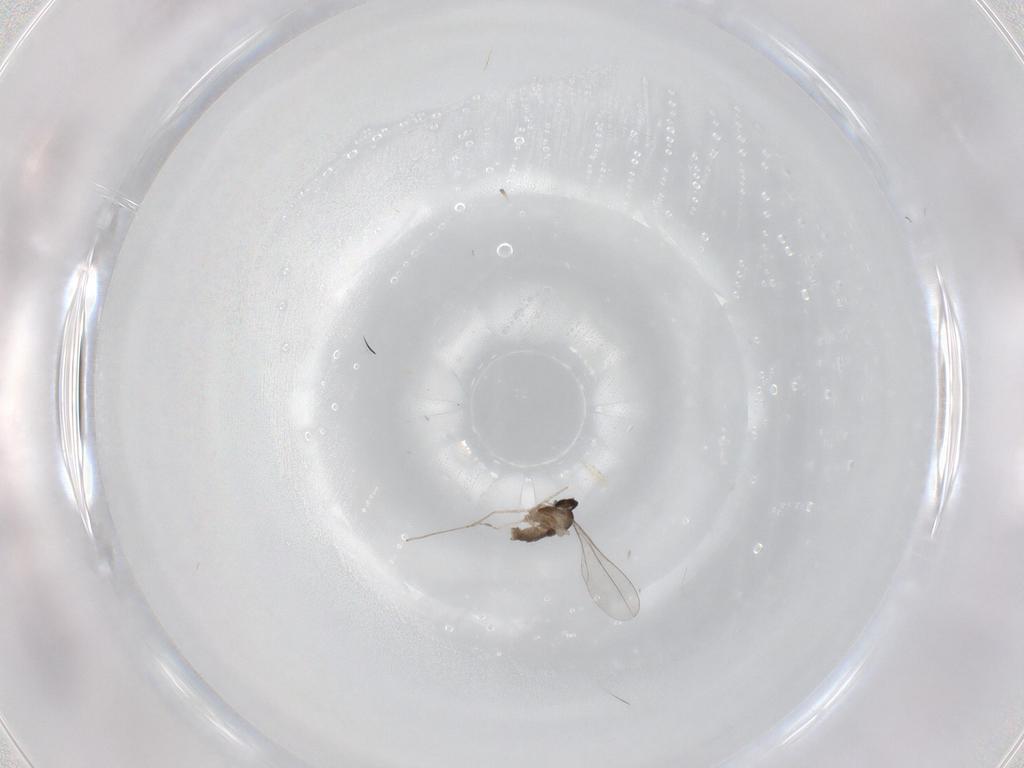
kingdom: Animalia
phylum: Arthropoda
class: Insecta
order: Diptera
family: Cecidomyiidae
